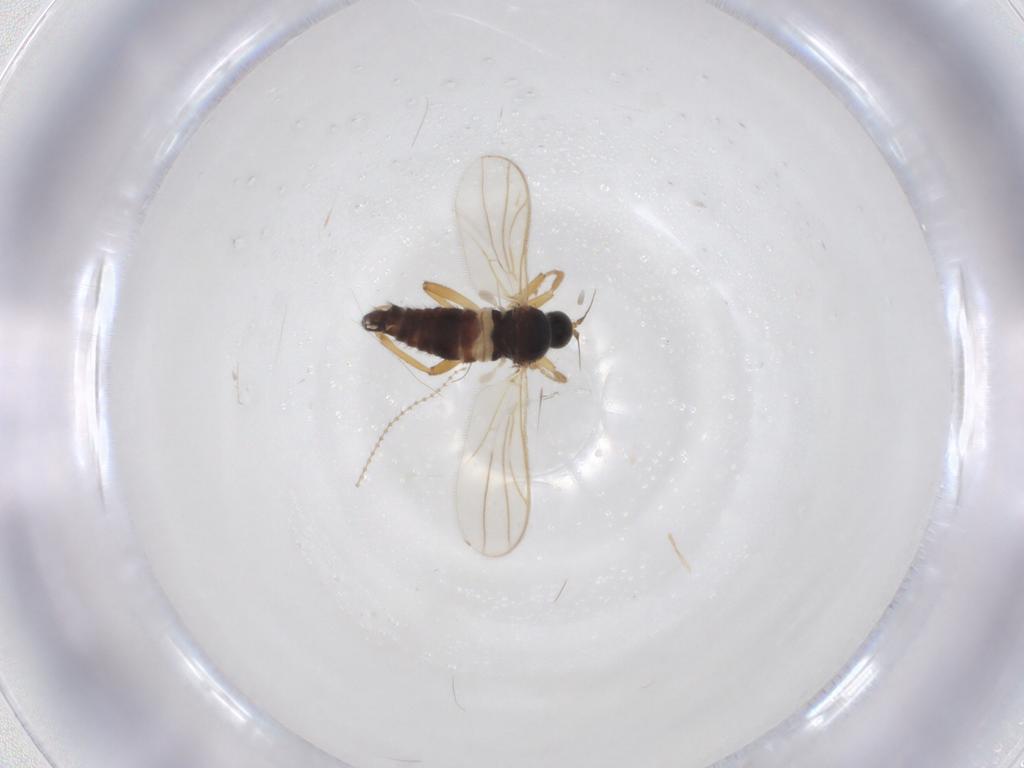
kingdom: Animalia
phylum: Arthropoda
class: Insecta
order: Diptera
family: Hybotidae
